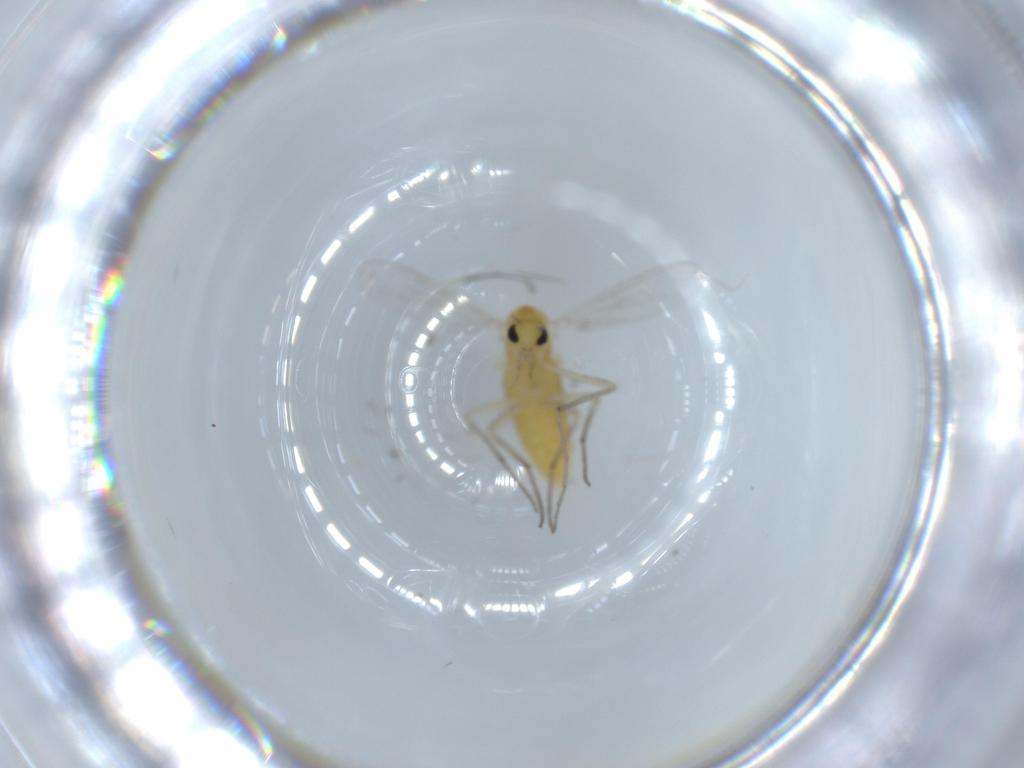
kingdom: Animalia
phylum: Arthropoda
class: Insecta
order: Diptera
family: Chironomidae
